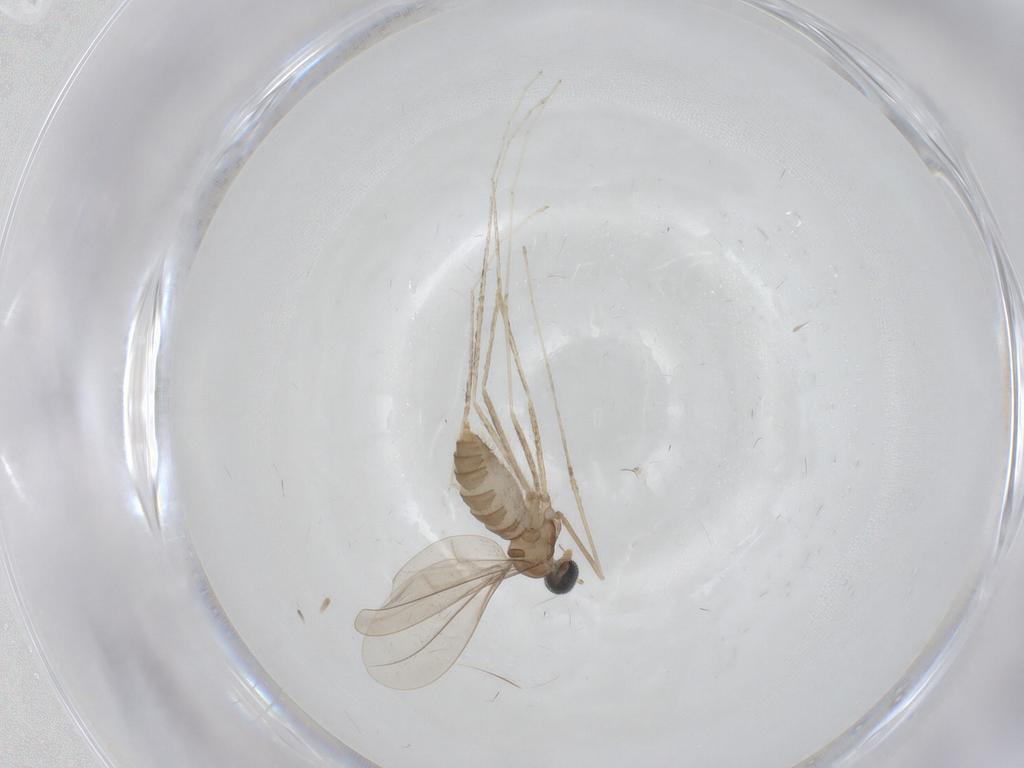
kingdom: Animalia
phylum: Arthropoda
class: Insecta
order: Diptera
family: Cecidomyiidae
